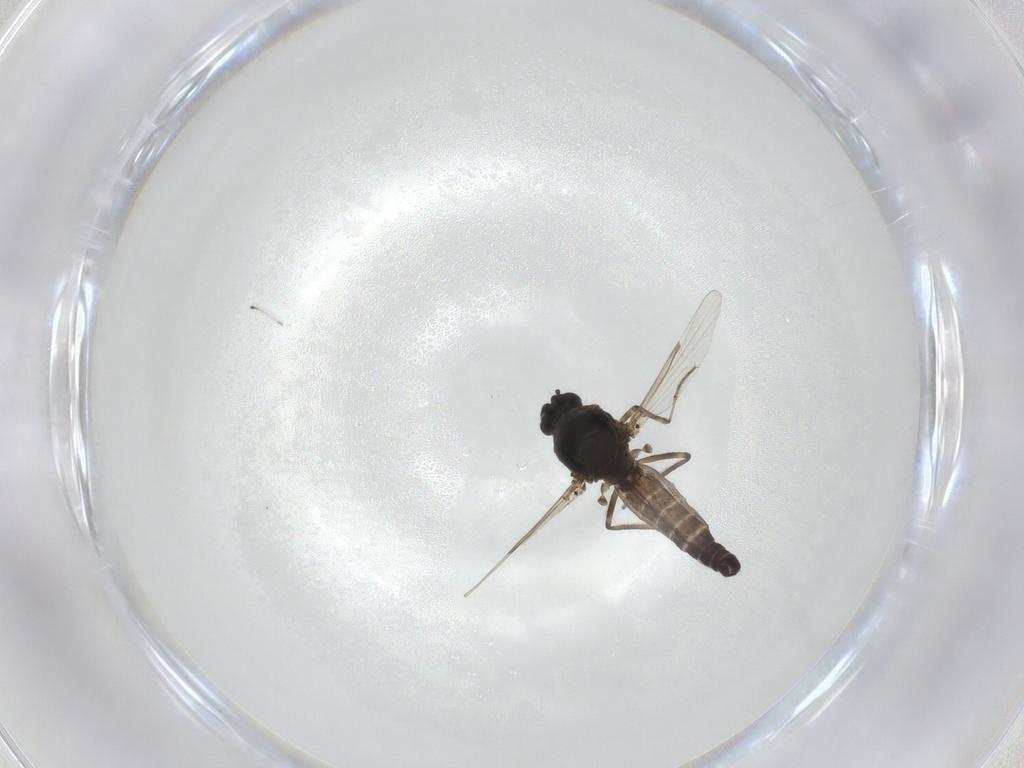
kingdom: Animalia
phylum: Arthropoda
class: Insecta
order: Diptera
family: Ceratopogonidae
